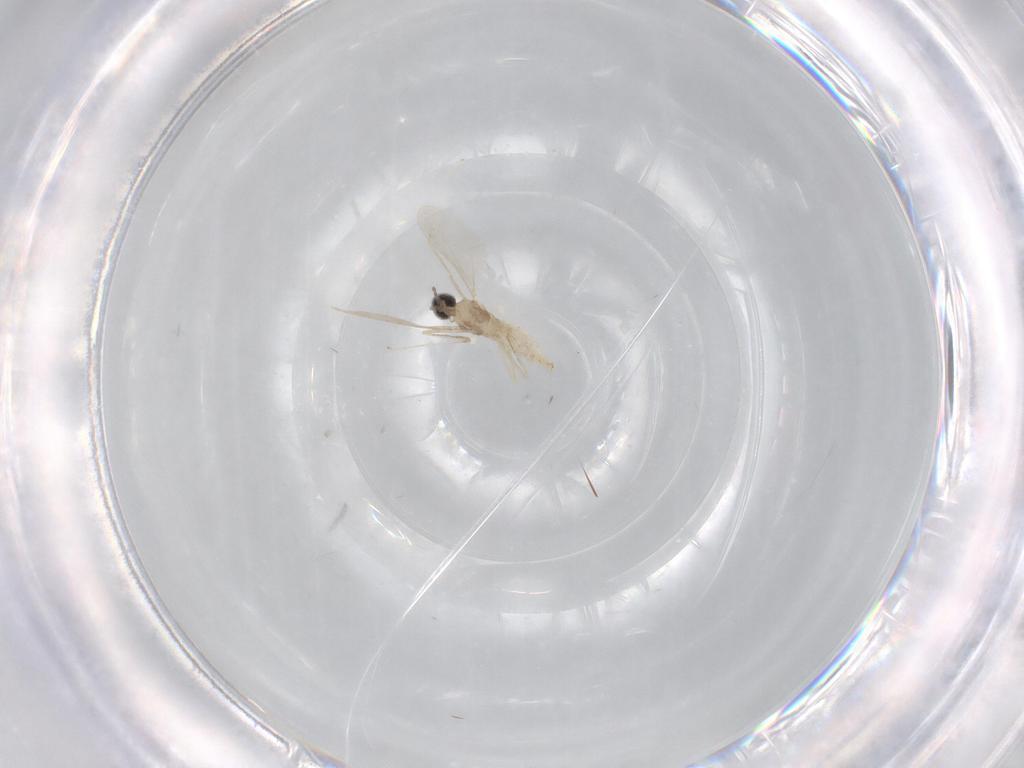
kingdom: Animalia
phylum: Arthropoda
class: Insecta
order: Diptera
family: Cecidomyiidae
